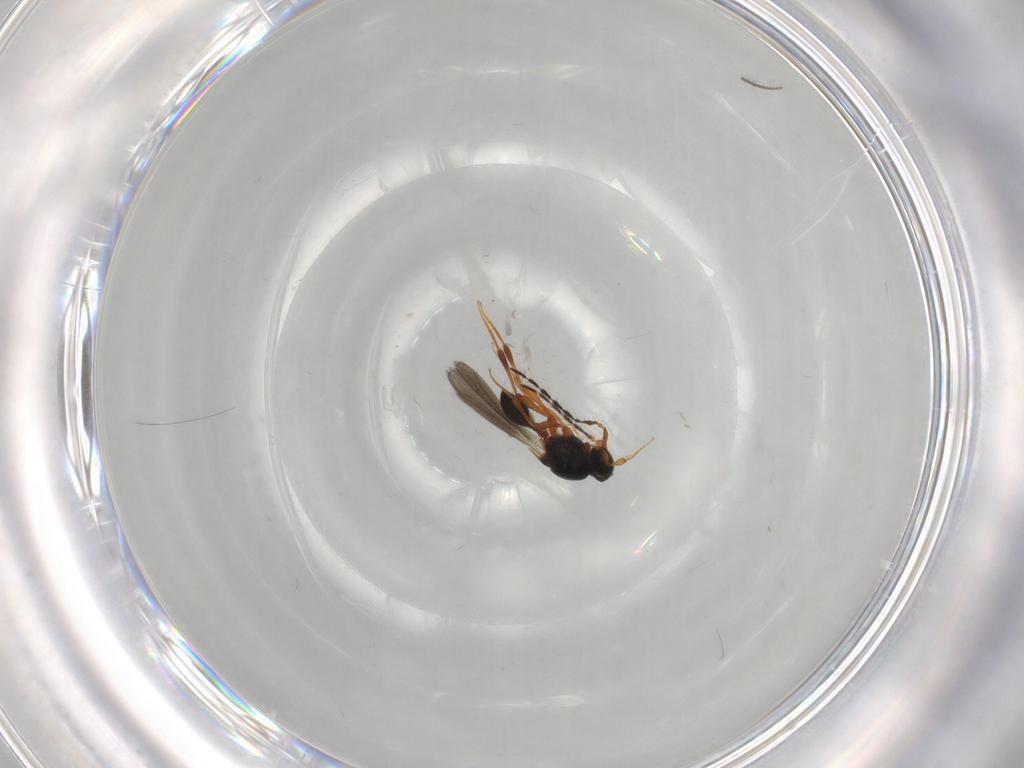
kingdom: Animalia
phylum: Arthropoda
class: Insecta
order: Hymenoptera
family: Platygastridae
